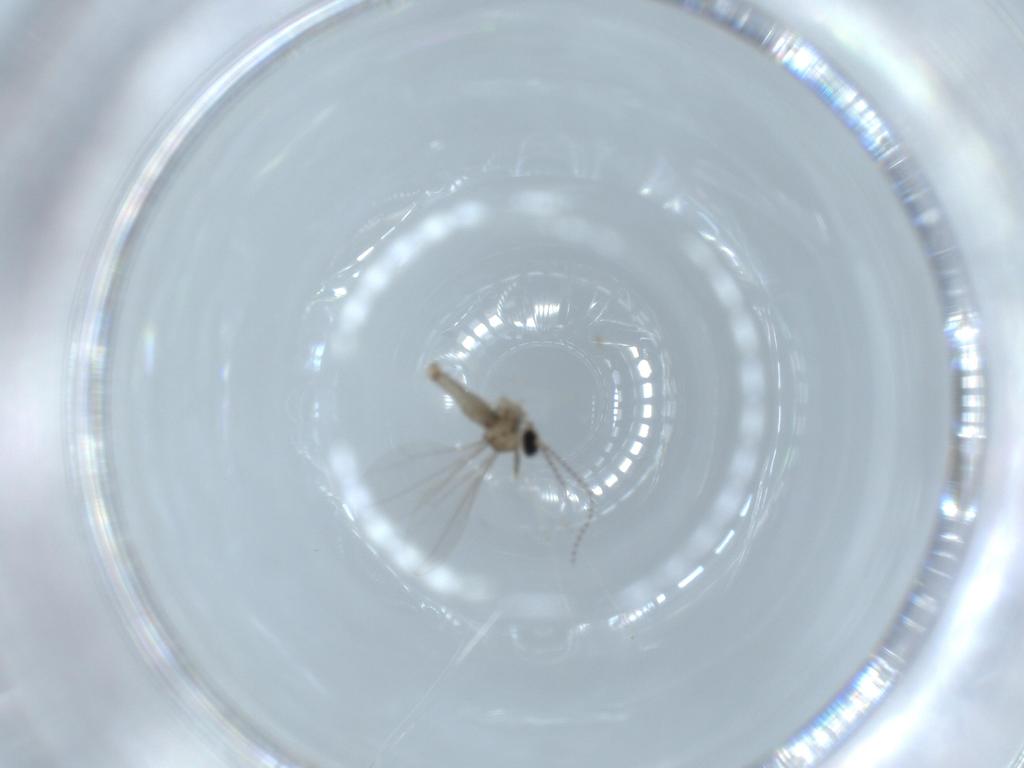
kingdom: Animalia
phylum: Arthropoda
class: Insecta
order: Diptera
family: Cecidomyiidae
